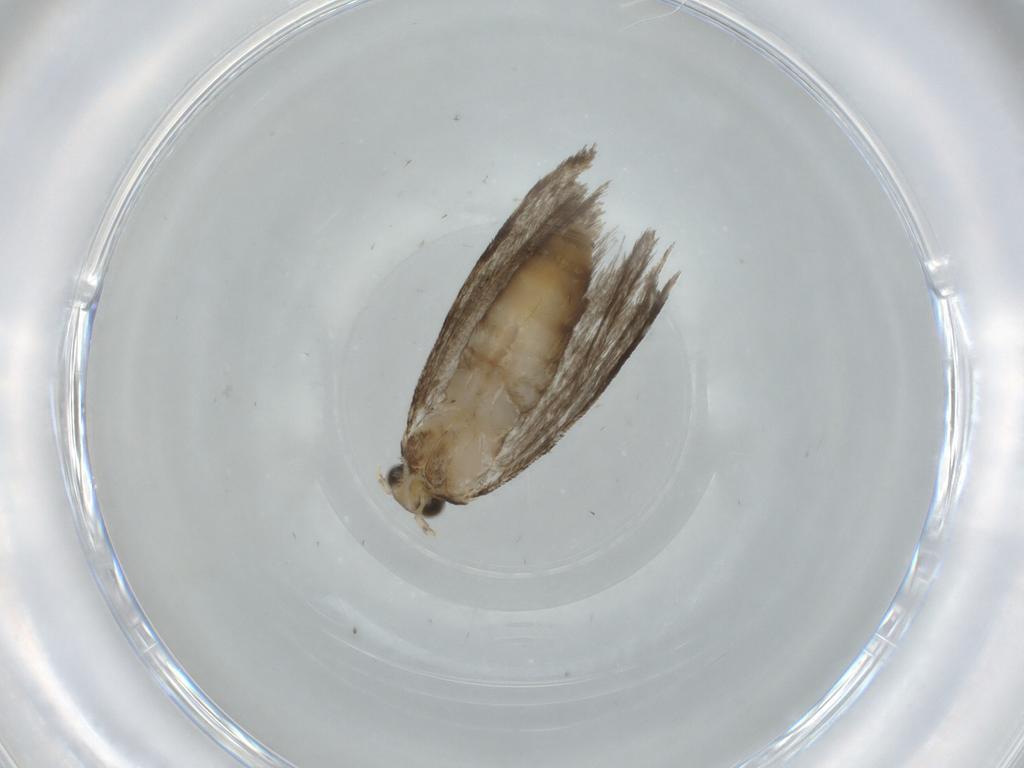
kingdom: Animalia
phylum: Arthropoda
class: Insecta
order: Lepidoptera
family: Tineidae
